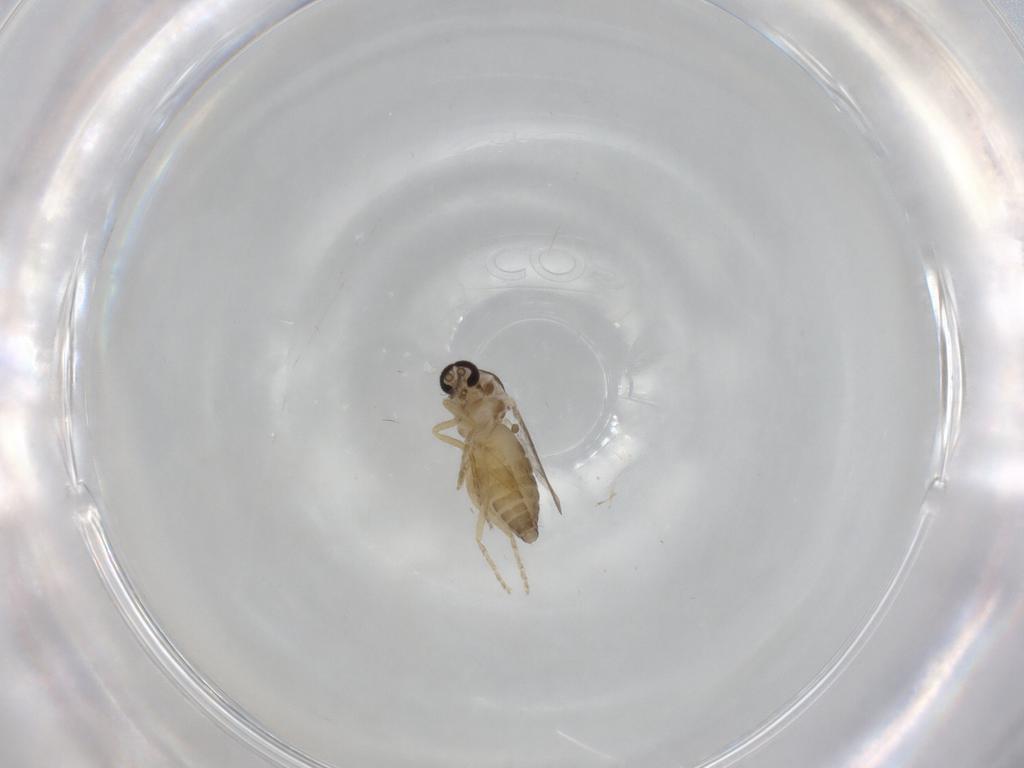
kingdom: Animalia
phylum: Arthropoda
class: Insecta
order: Diptera
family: Ceratopogonidae
